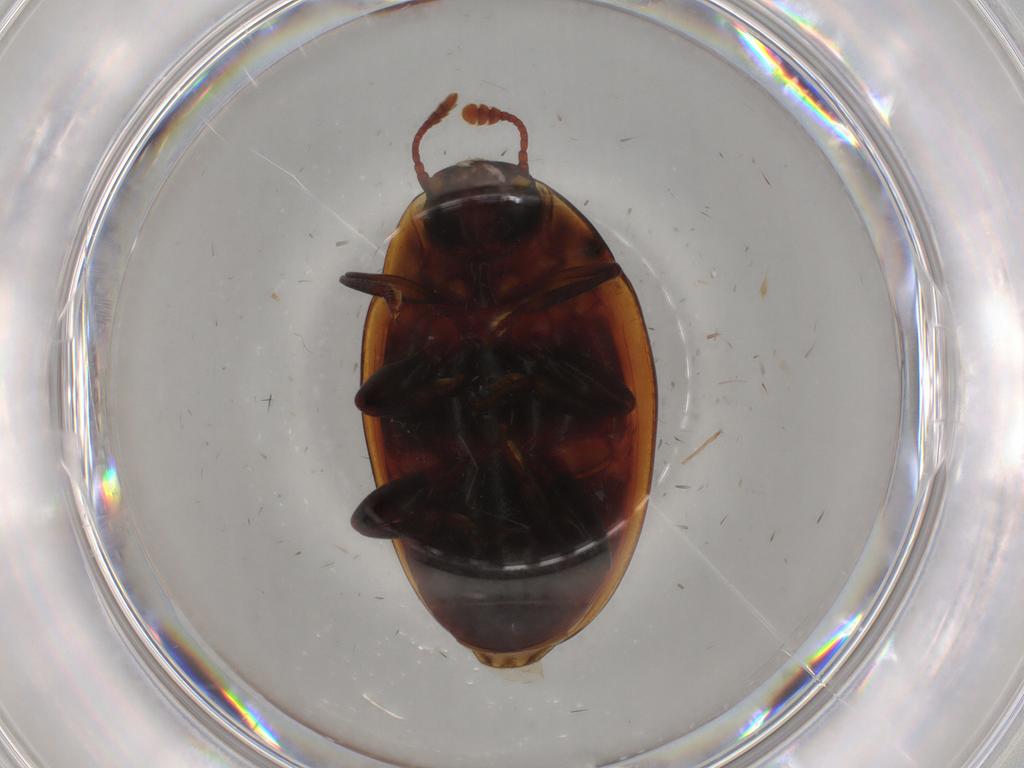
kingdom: Animalia
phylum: Arthropoda
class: Insecta
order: Coleoptera
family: Zopheridae
